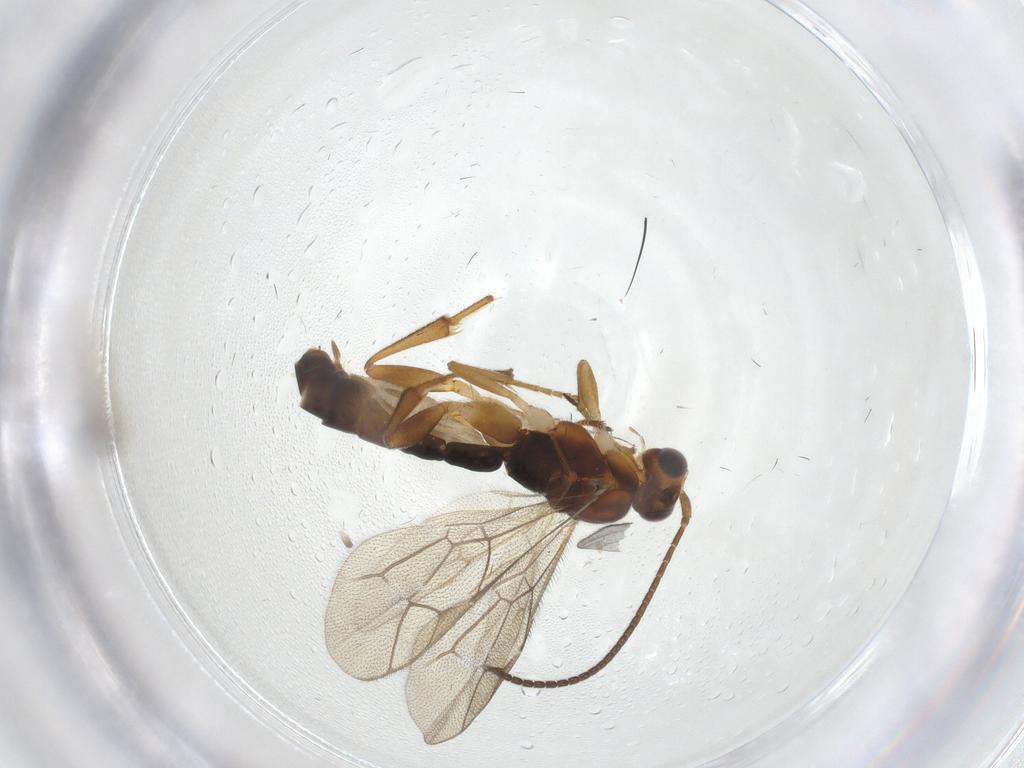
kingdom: Animalia
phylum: Arthropoda
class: Insecta
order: Hymenoptera
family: Ichneumonidae
